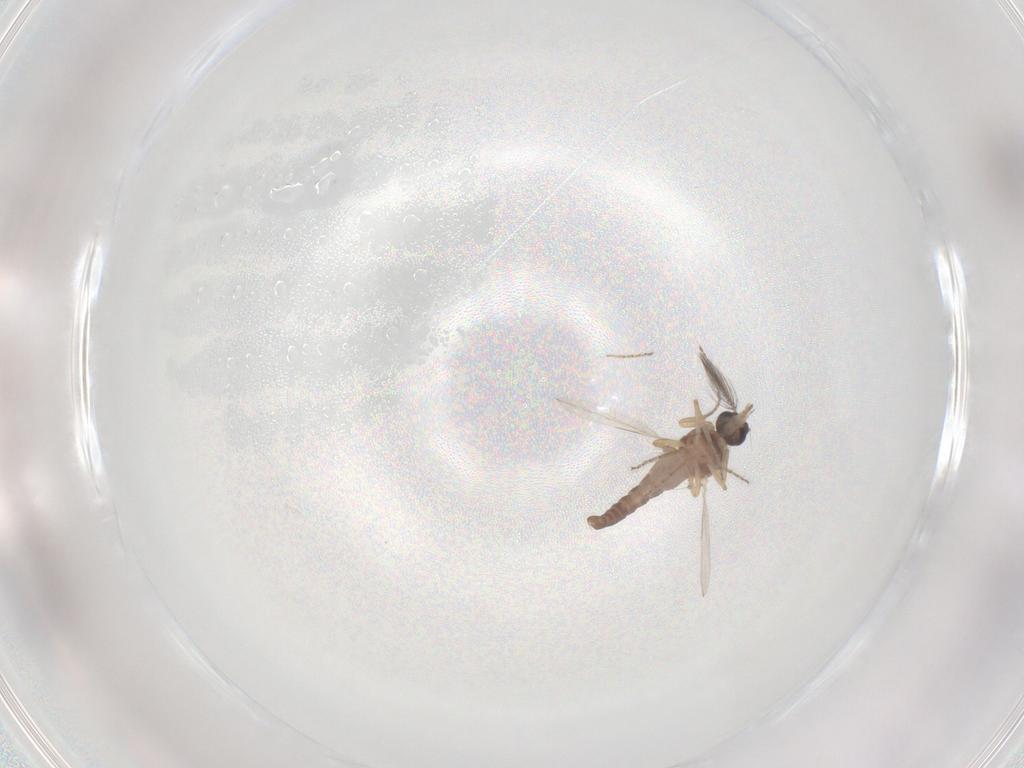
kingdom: Animalia
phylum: Arthropoda
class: Insecta
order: Diptera
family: Ceratopogonidae
